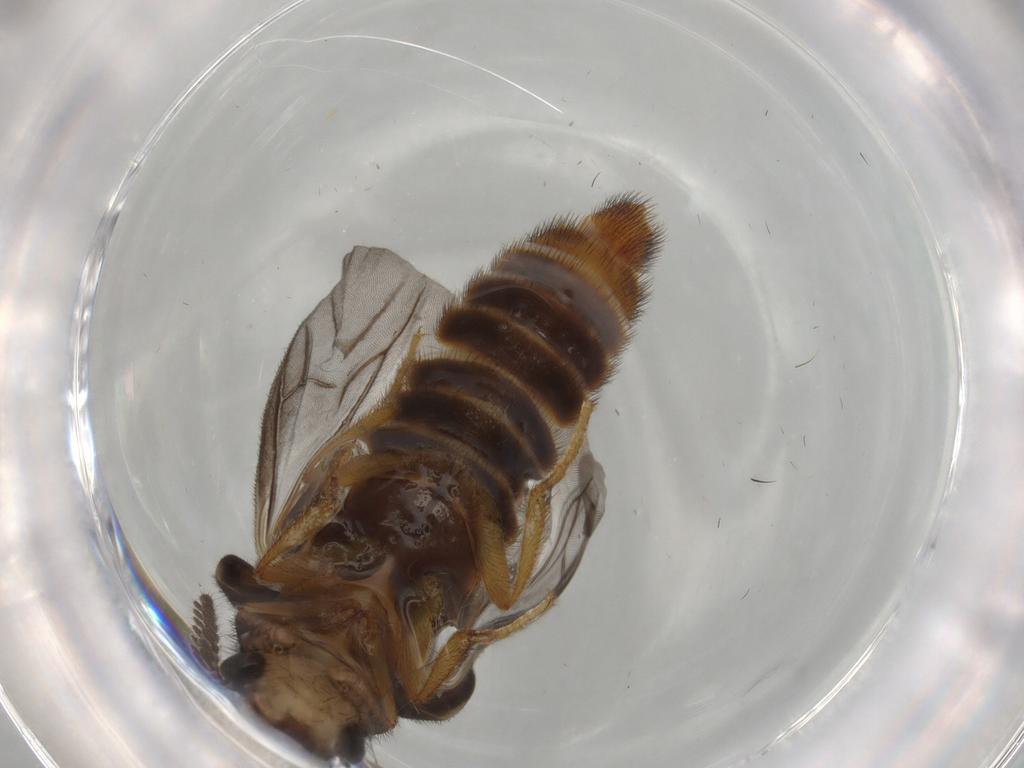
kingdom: Animalia
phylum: Arthropoda
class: Insecta
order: Coleoptera
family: Phengodidae
